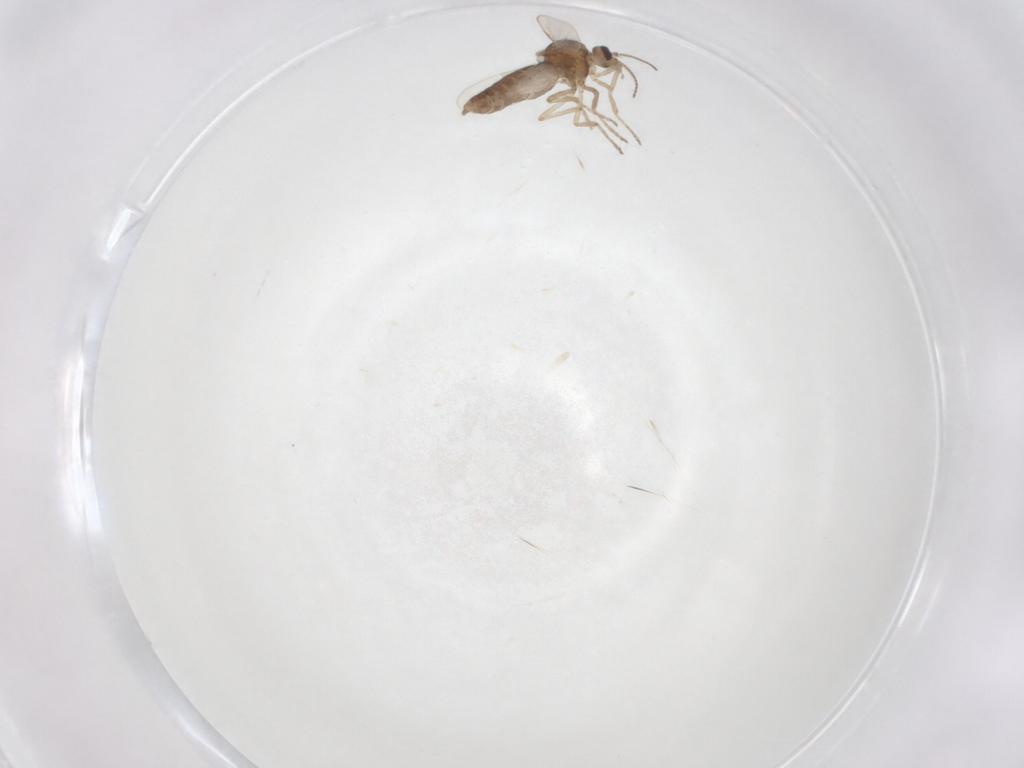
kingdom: Animalia
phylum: Arthropoda
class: Insecta
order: Diptera
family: Ceratopogonidae
